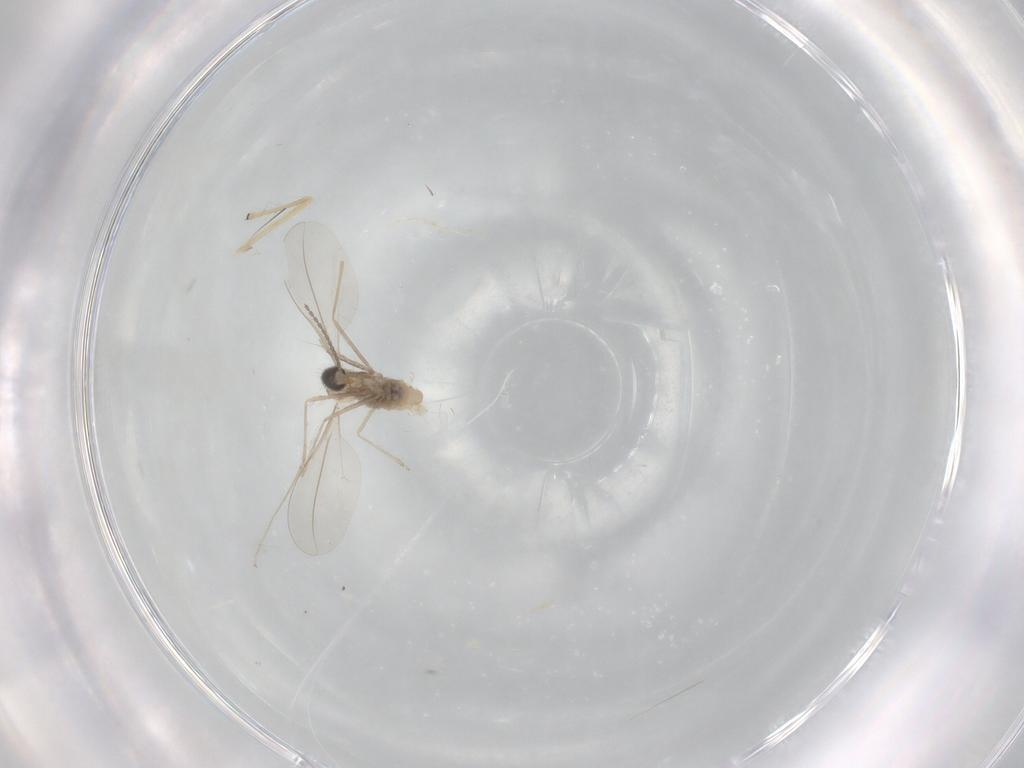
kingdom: Animalia
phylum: Arthropoda
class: Insecta
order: Diptera
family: Chironomidae
